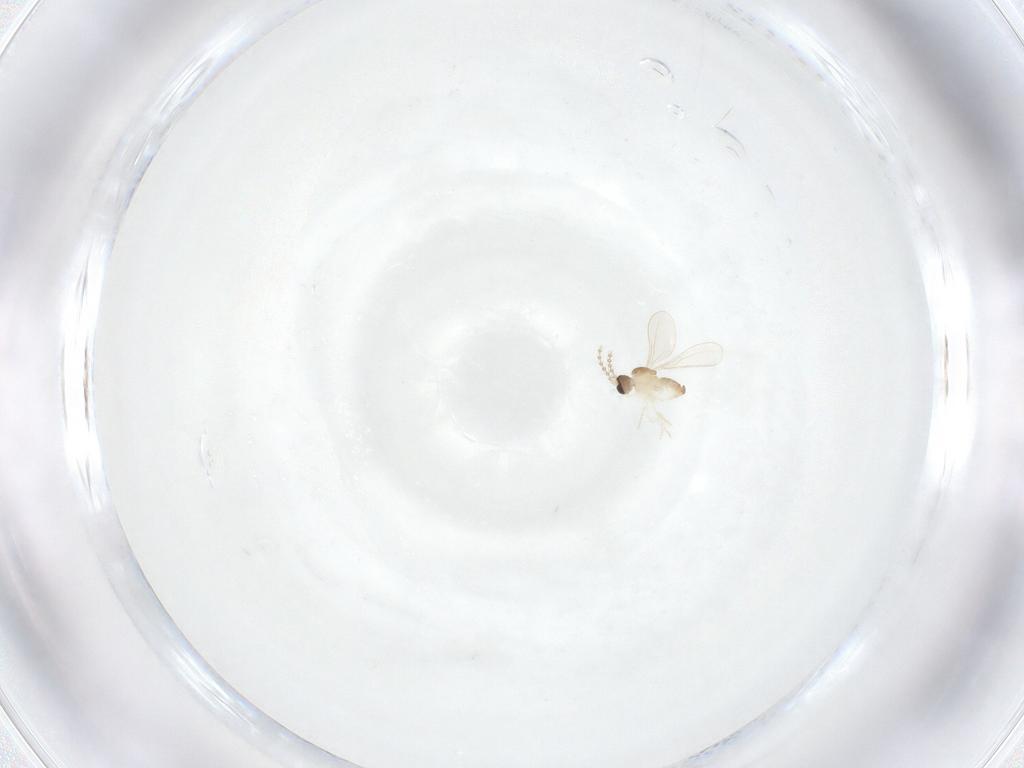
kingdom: Animalia
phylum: Arthropoda
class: Insecta
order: Diptera
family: Cecidomyiidae
